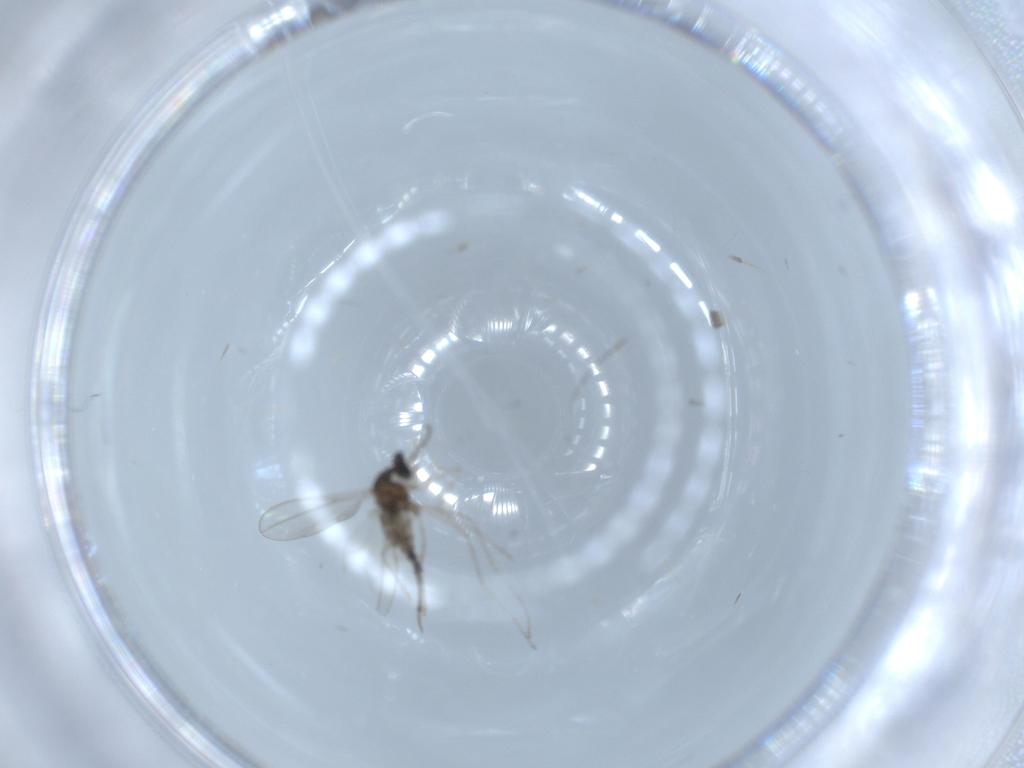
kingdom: Animalia
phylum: Arthropoda
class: Insecta
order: Diptera
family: Cecidomyiidae
